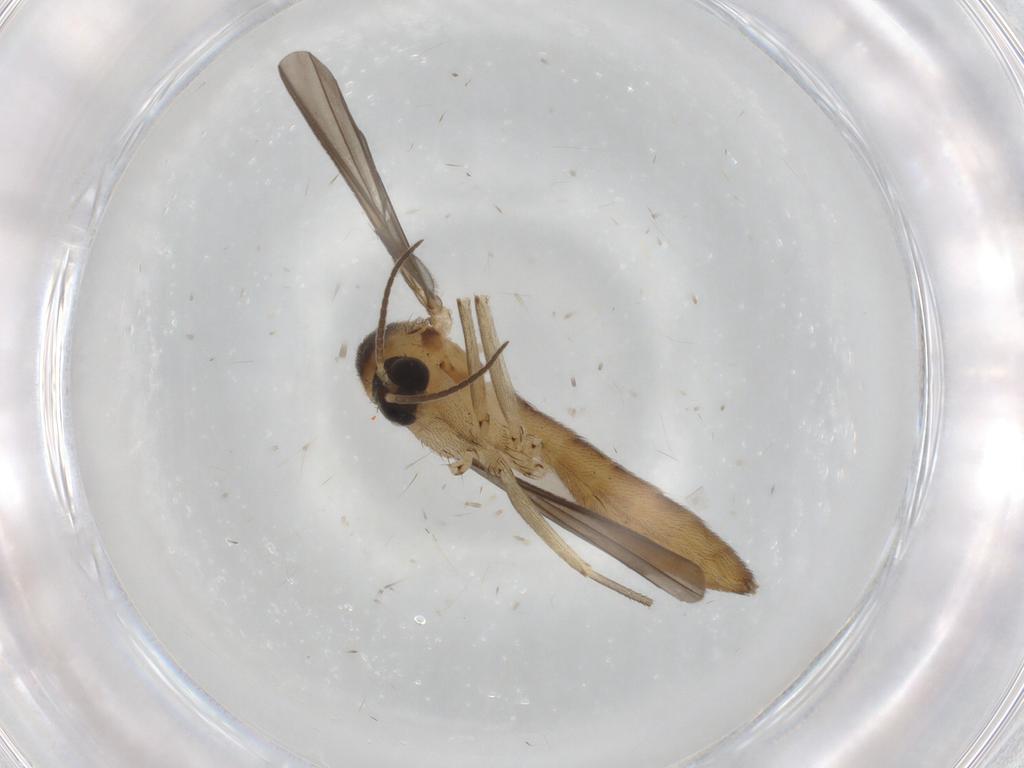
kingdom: Animalia
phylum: Arthropoda
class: Insecta
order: Diptera
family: Mycetophilidae
